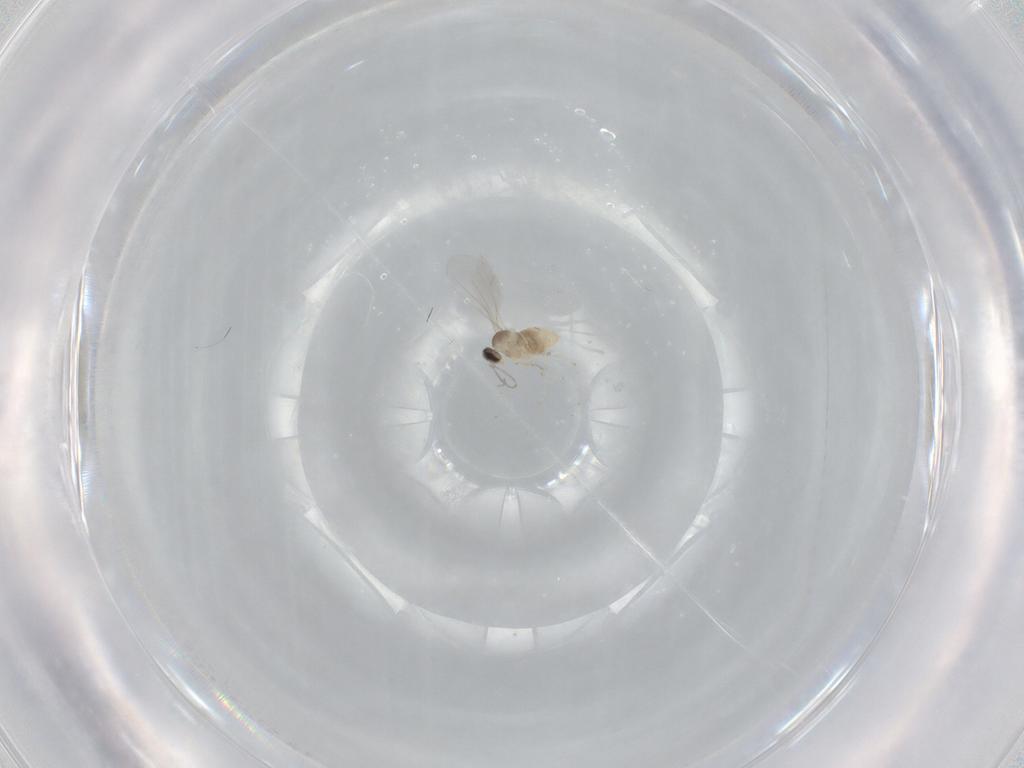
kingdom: Animalia
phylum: Arthropoda
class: Insecta
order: Diptera
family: Cecidomyiidae
